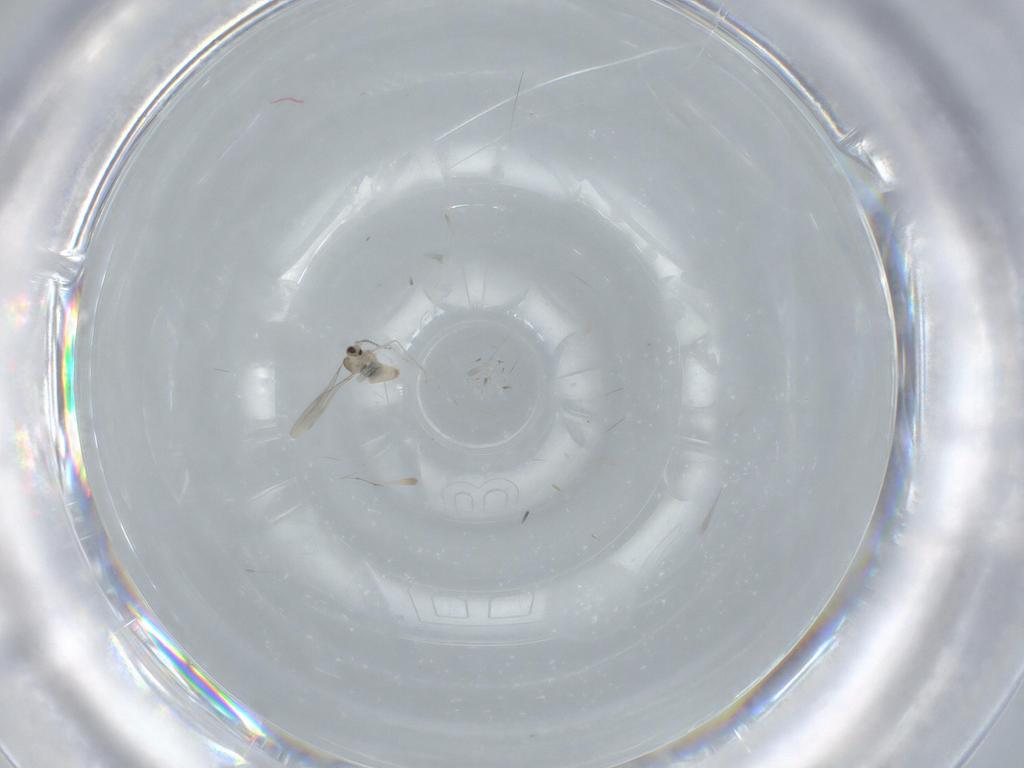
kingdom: Animalia
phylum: Arthropoda
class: Insecta
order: Diptera
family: Cecidomyiidae
